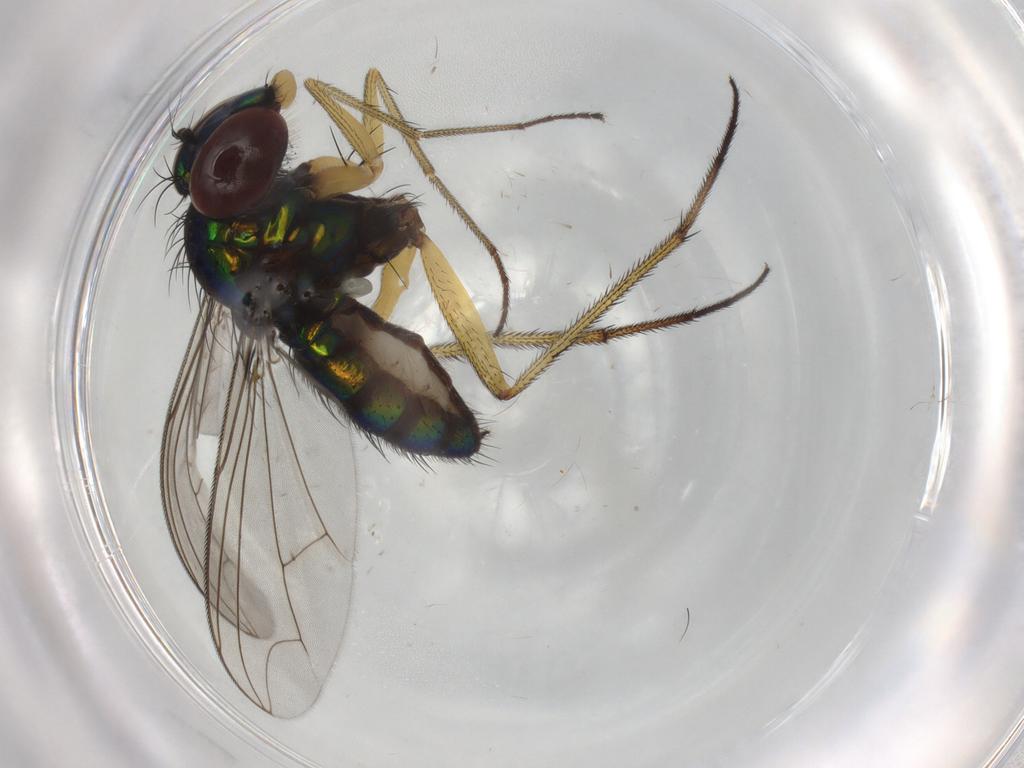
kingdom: Animalia
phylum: Arthropoda
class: Insecta
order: Diptera
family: Dolichopodidae
